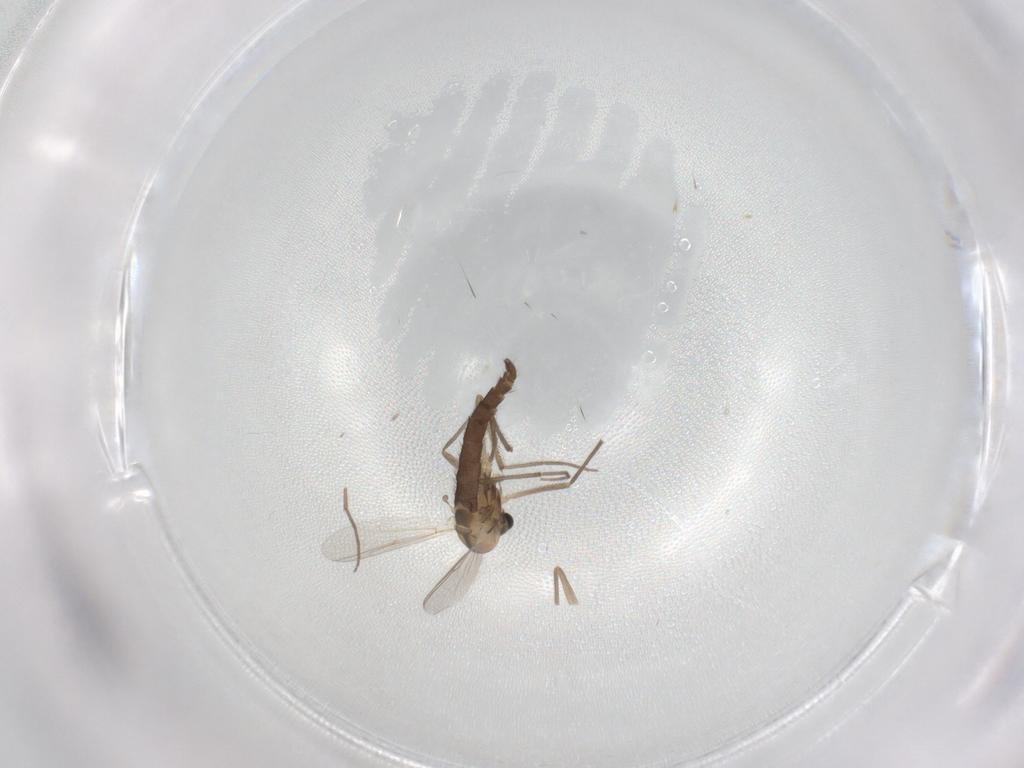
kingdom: Animalia
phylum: Arthropoda
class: Insecta
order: Diptera
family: Chironomidae
